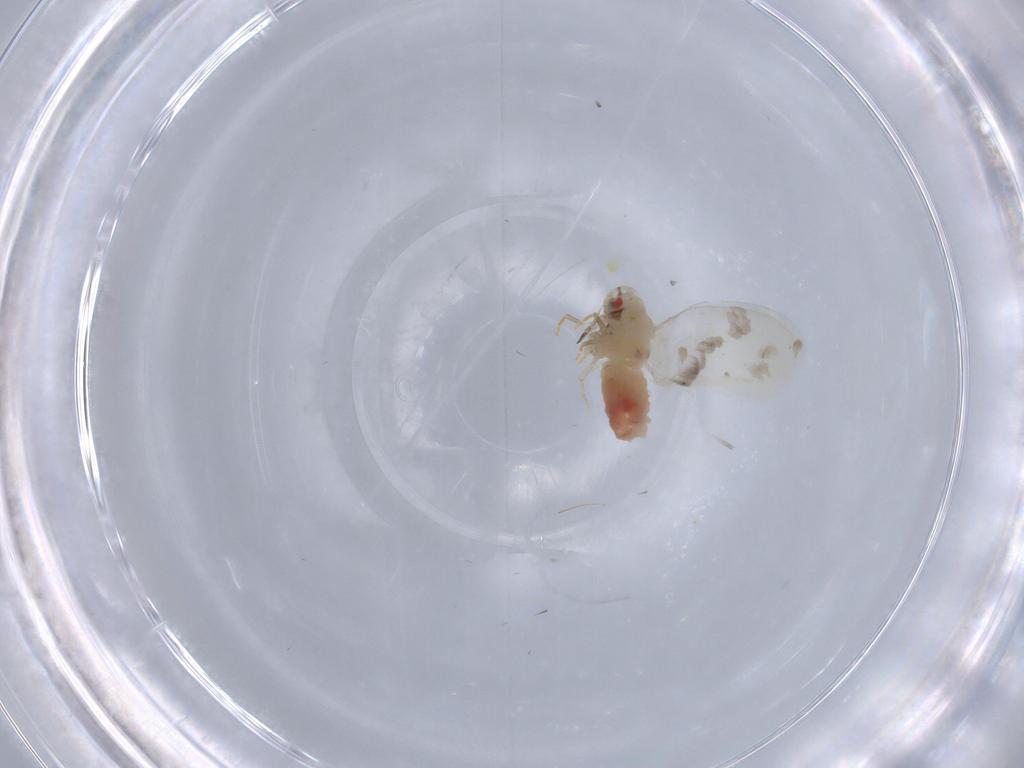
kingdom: Animalia
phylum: Arthropoda
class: Insecta
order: Hemiptera
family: Aleyrodidae
